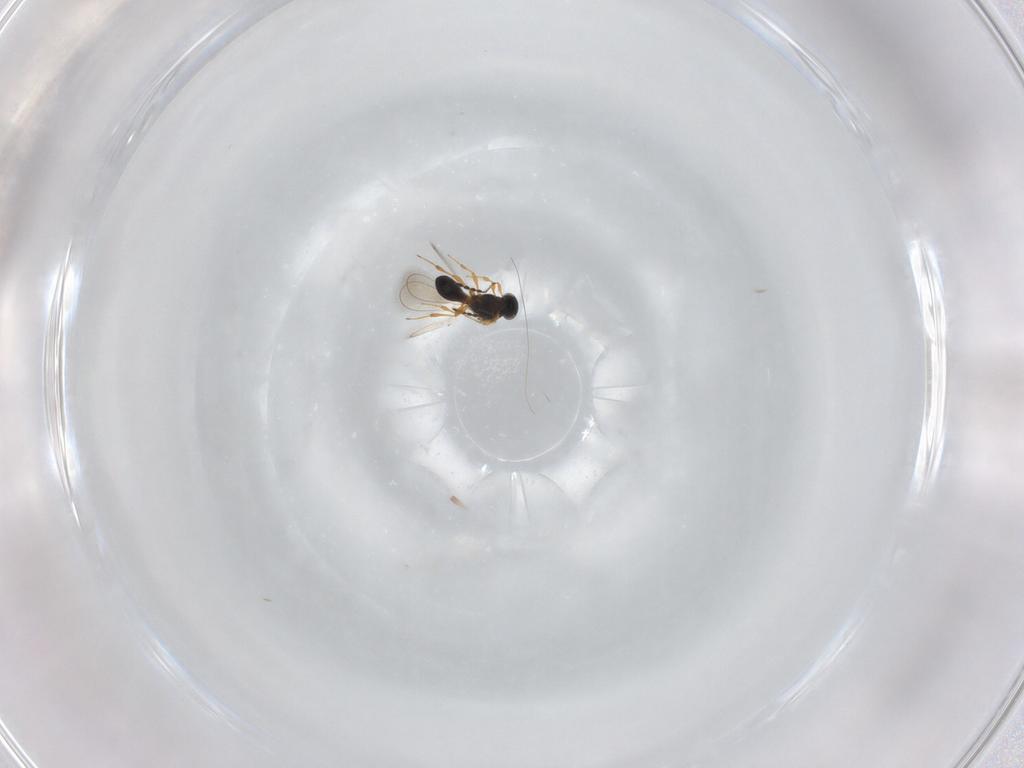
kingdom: Animalia
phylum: Arthropoda
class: Insecta
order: Hymenoptera
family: Platygastridae
